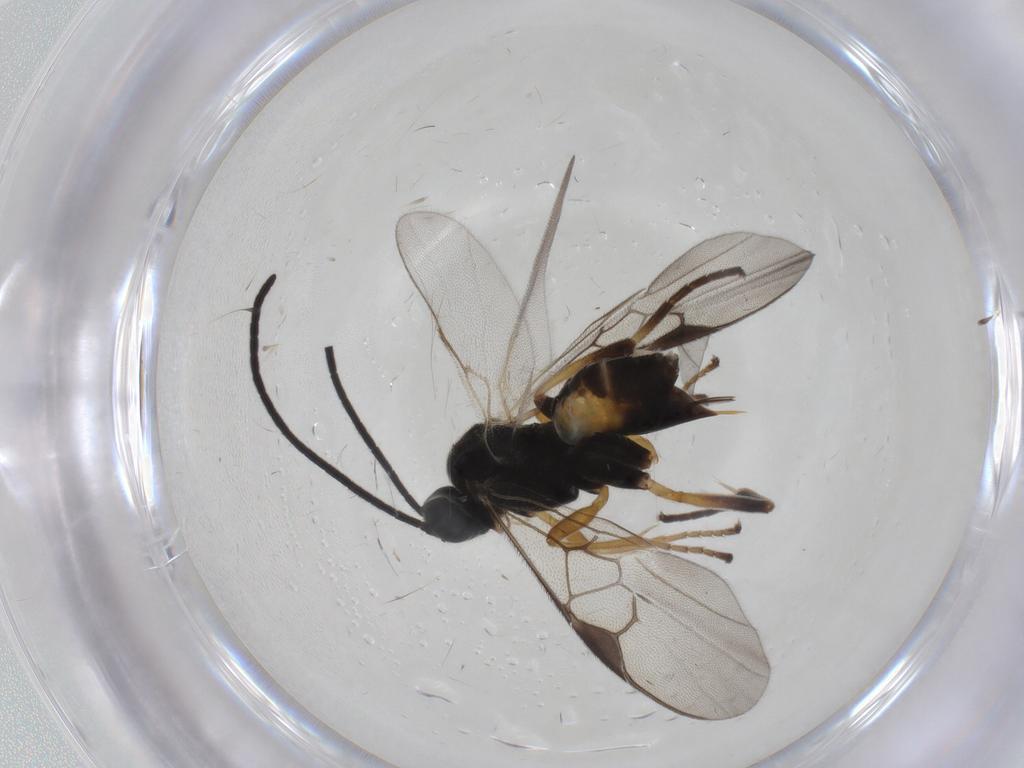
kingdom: Animalia
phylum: Arthropoda
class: Insecta
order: Hymenoptera
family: Braconidae
